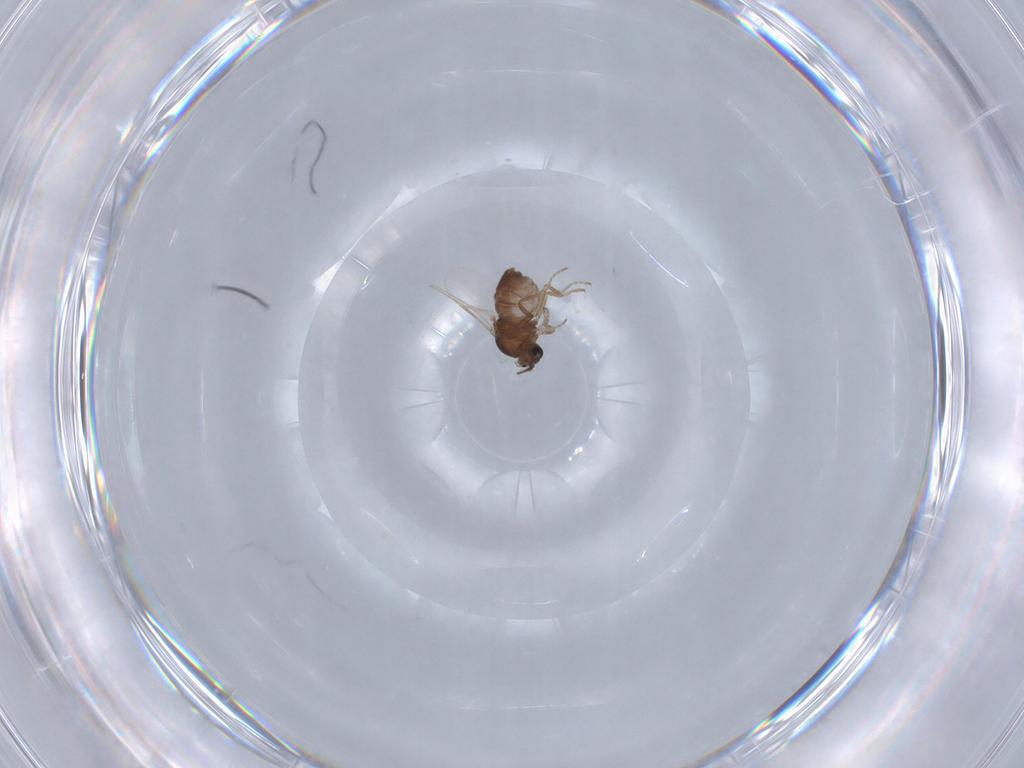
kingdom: Animalia
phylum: Arthropoda
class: Insecta
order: Diptera
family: Ceratopogonidae
